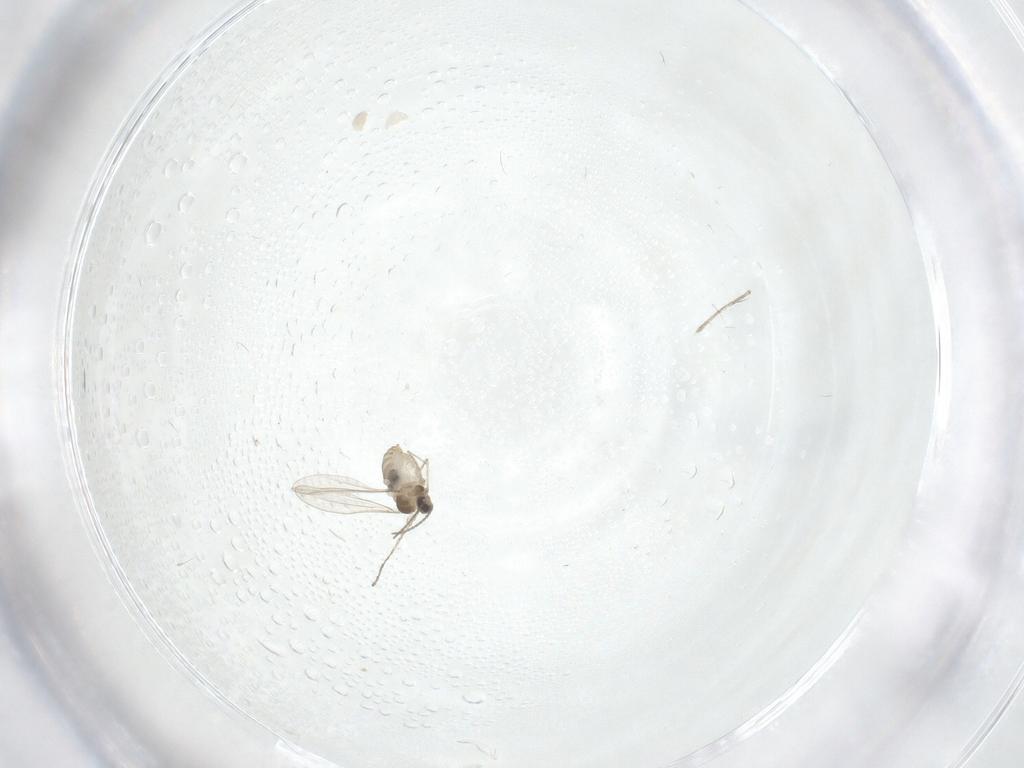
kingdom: Animalia
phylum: Arthropoda
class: Insecta
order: Diptera
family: Psychodidae
